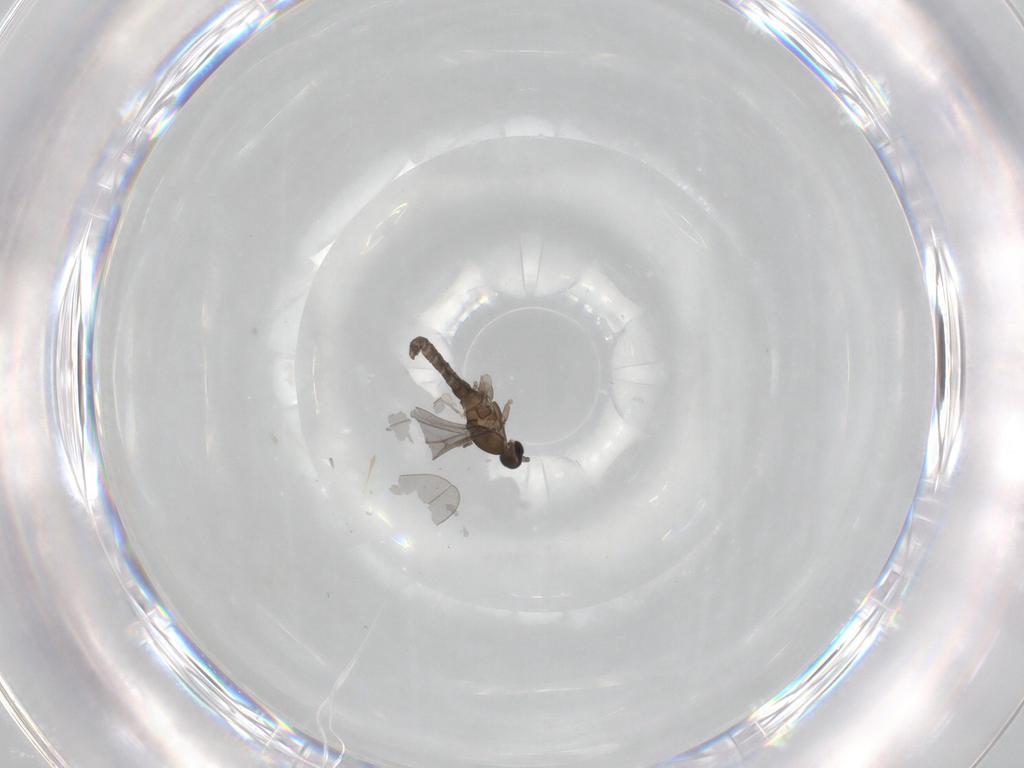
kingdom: Animalia
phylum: Arthropoda
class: Insecta
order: Diptera
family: Cecidomyiidae
